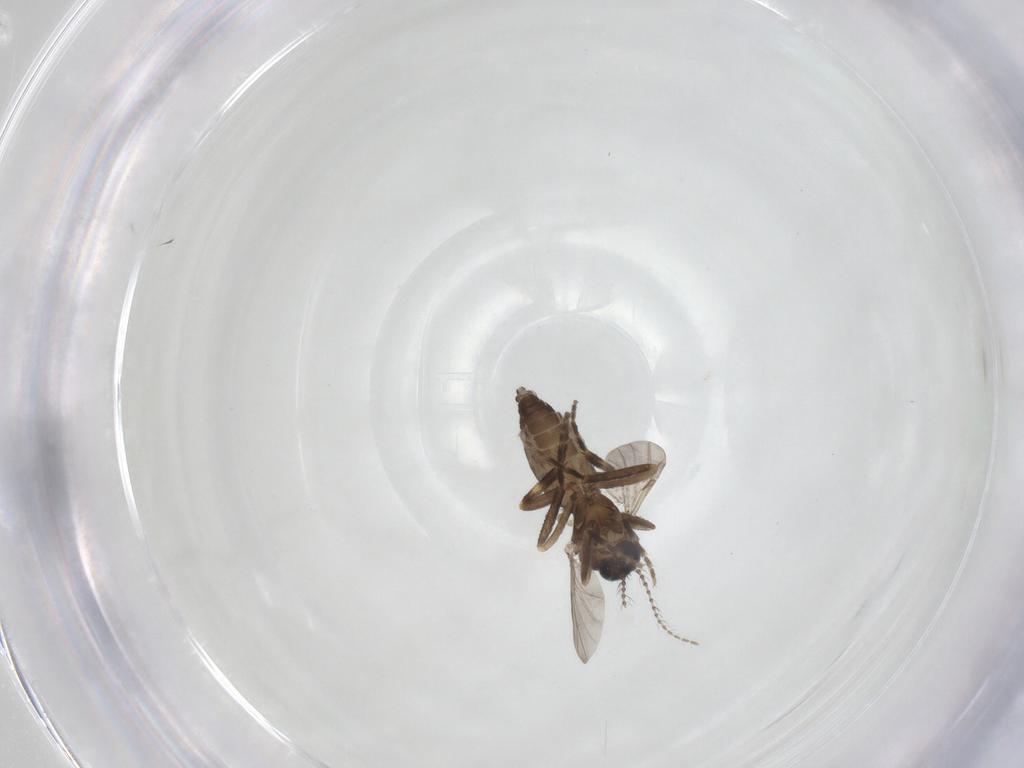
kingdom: Animalia
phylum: Arthropoda
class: Insecta
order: Diptera
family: Ceratopogonidae
